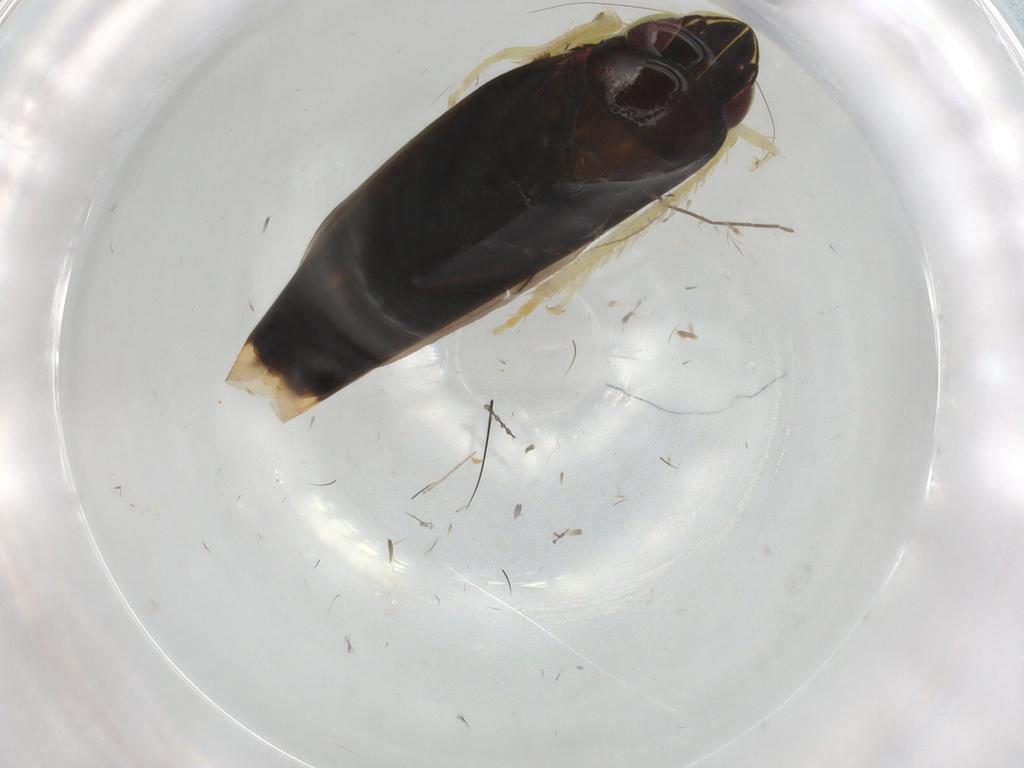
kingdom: Animalia
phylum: Arthropoda
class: Insecta
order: Hemiptera
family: Cicadellidae
